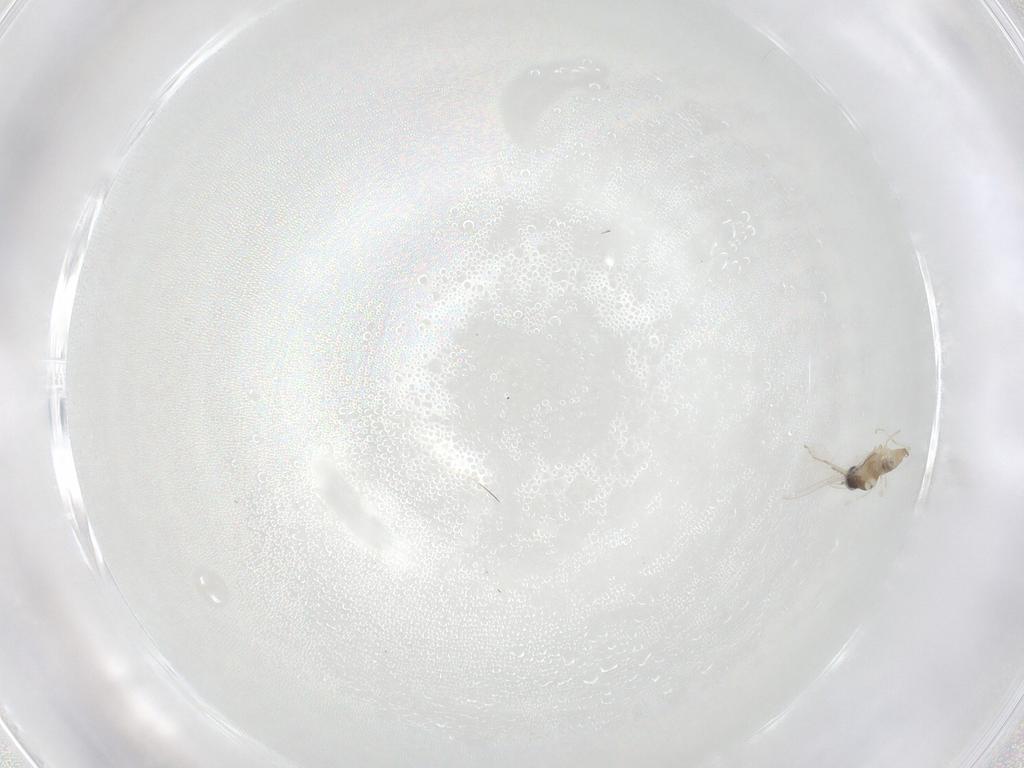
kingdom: Animalia
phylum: Arthropoda
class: Insecta
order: Diptera
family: Cecidomyiidae
